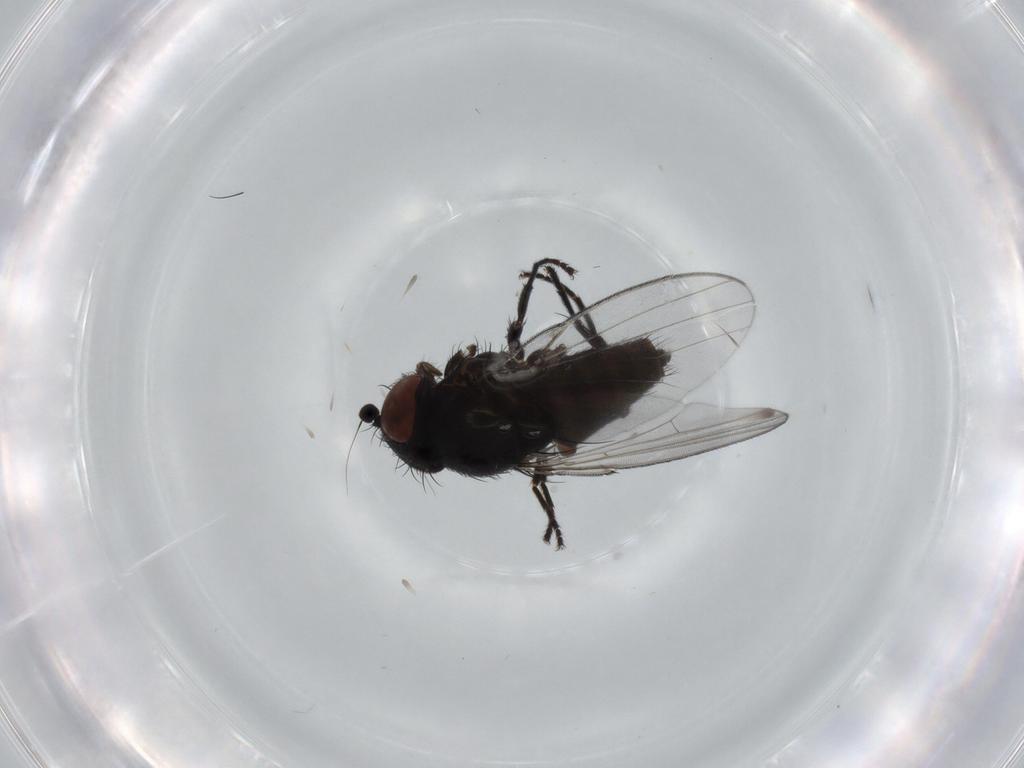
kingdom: Animalia
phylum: Arthropoda
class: Insecta
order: Diptera
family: Milichiidae
